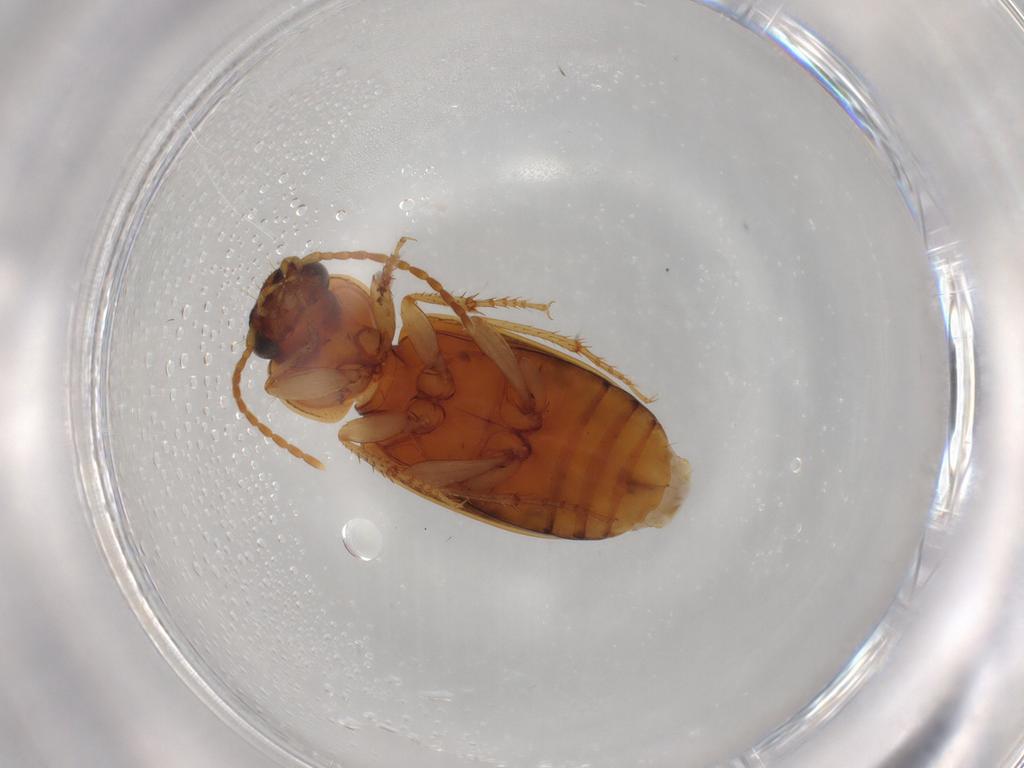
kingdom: Animalia
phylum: Arthropoda
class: Insecta
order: Coleoptera
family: Carabidae
